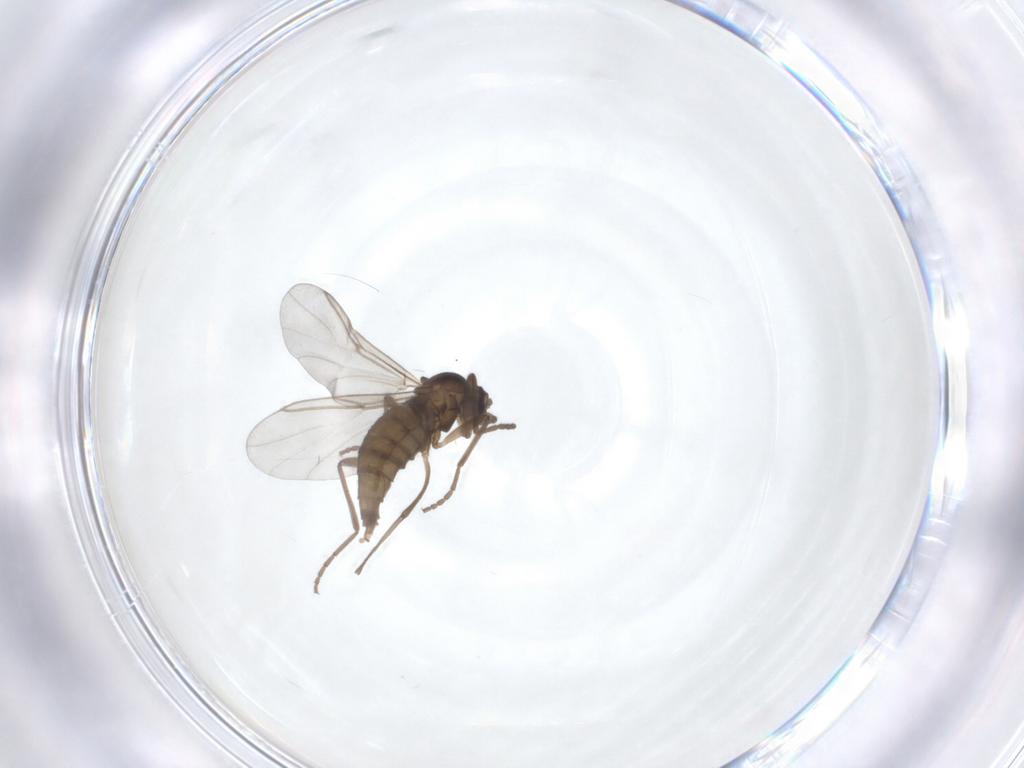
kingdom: Animalia
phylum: Arthropoda
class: Insecta
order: Diptera
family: Cecidomyiidae
